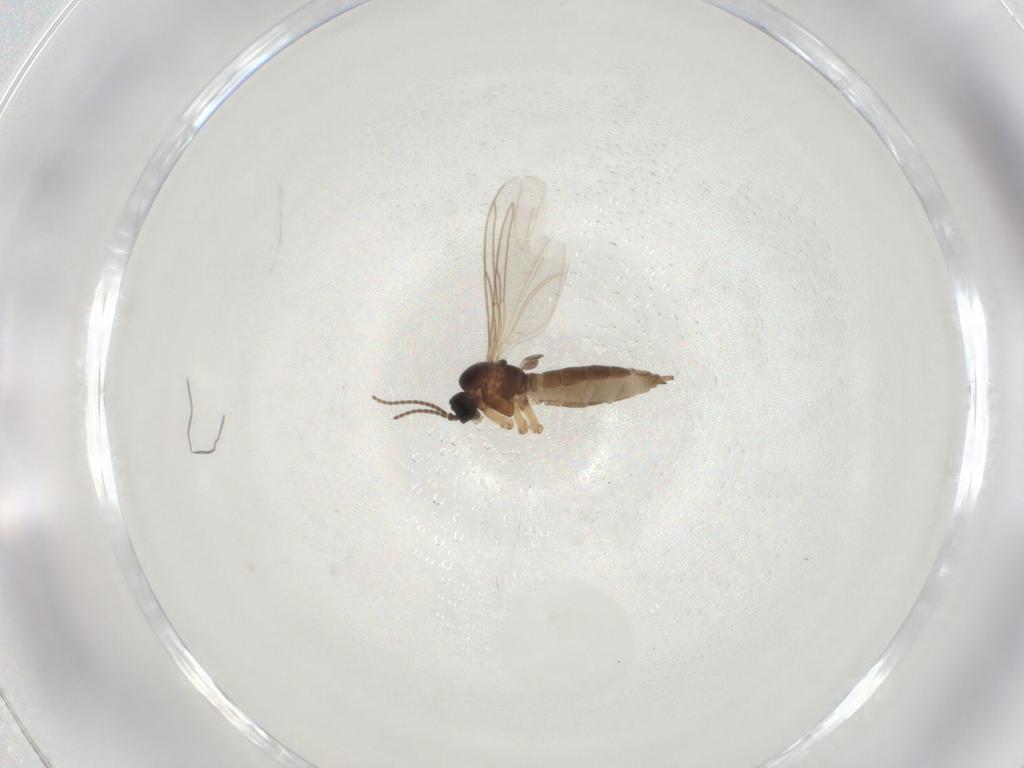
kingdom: Animalia
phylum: Arthropoda
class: Insecta
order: Diptera
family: Sciaridae
